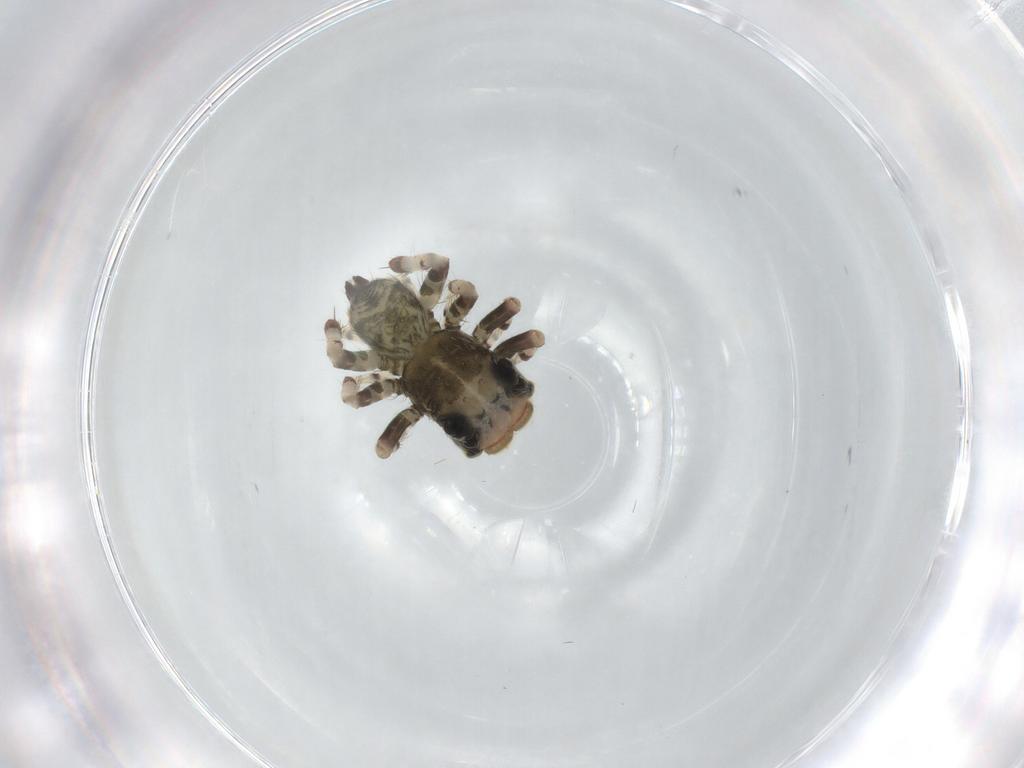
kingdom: Animalia
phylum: Arthropoda
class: Arachnida
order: Araneae
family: Salticidae
